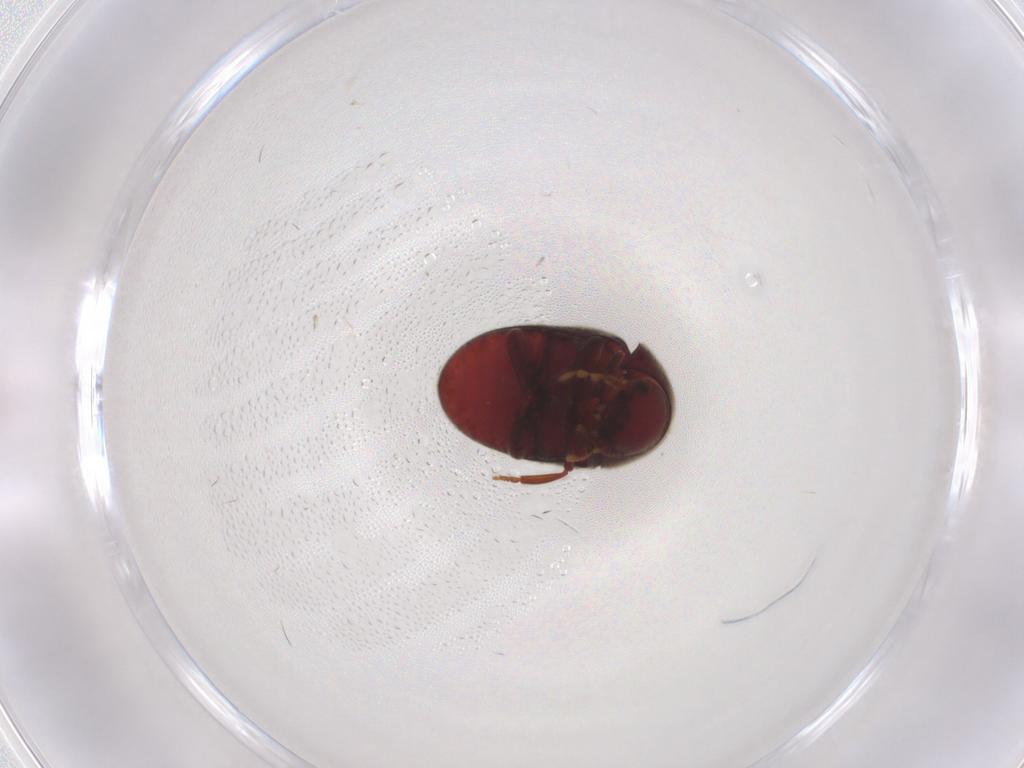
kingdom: Animalia
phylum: Arthropoda
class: Insecta
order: Coleoptera
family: Ptinidae
